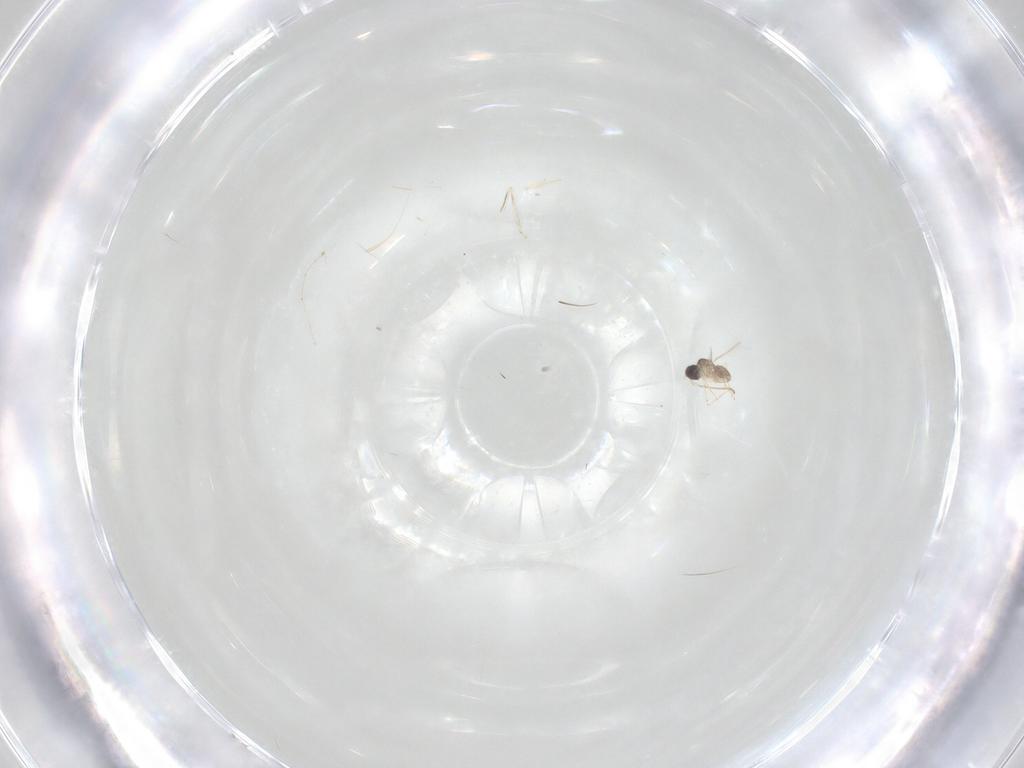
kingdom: Animalia
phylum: Arthropoda
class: Insecta
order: Diptera
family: Cecidomyiidae
